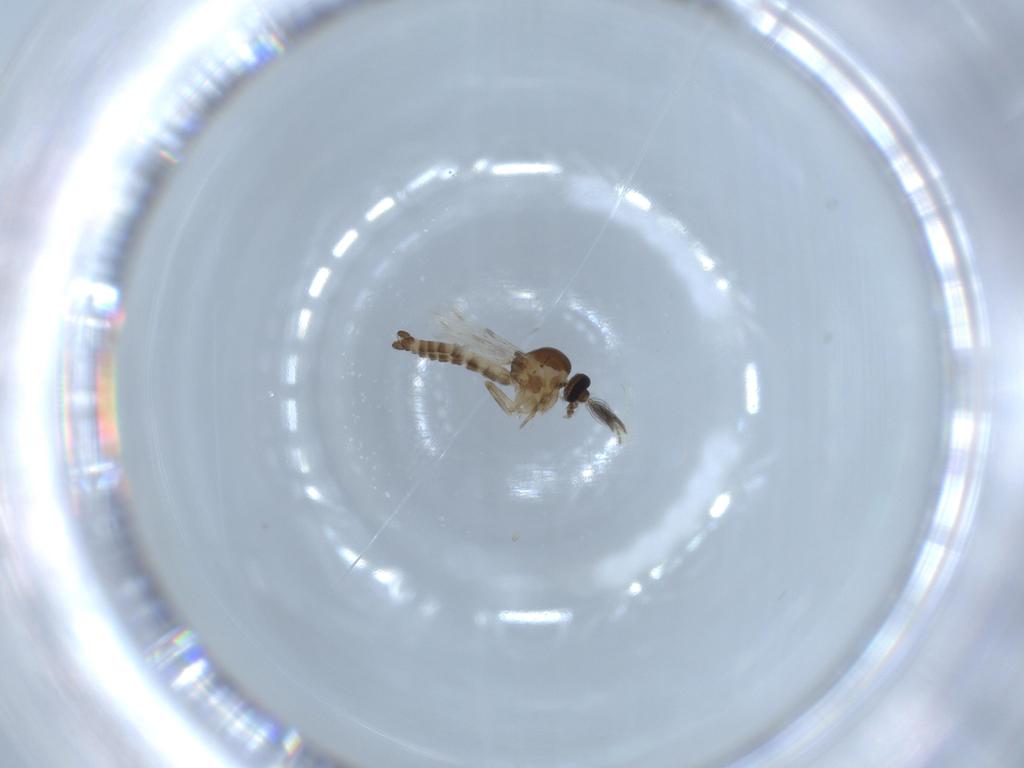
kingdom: Animalia
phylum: Arthropoda
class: Insecta
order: Diptera
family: Ceratopogonidae
